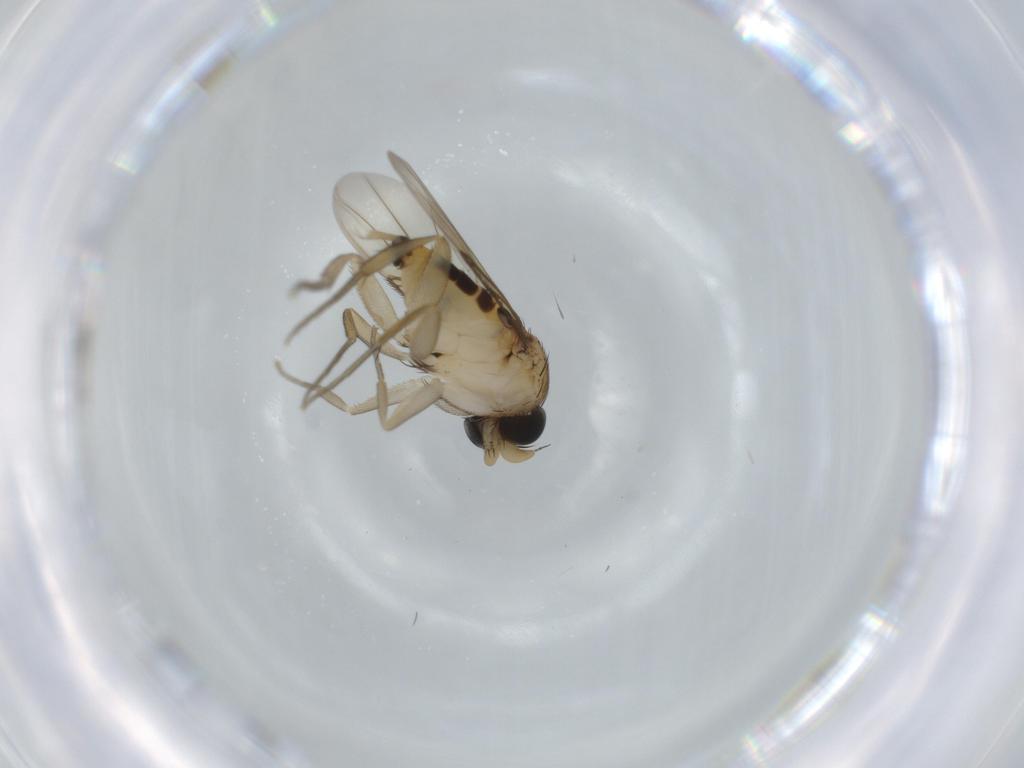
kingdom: Animalia
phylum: Arthropoda
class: Insecta
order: Diptera
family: Phoridae
